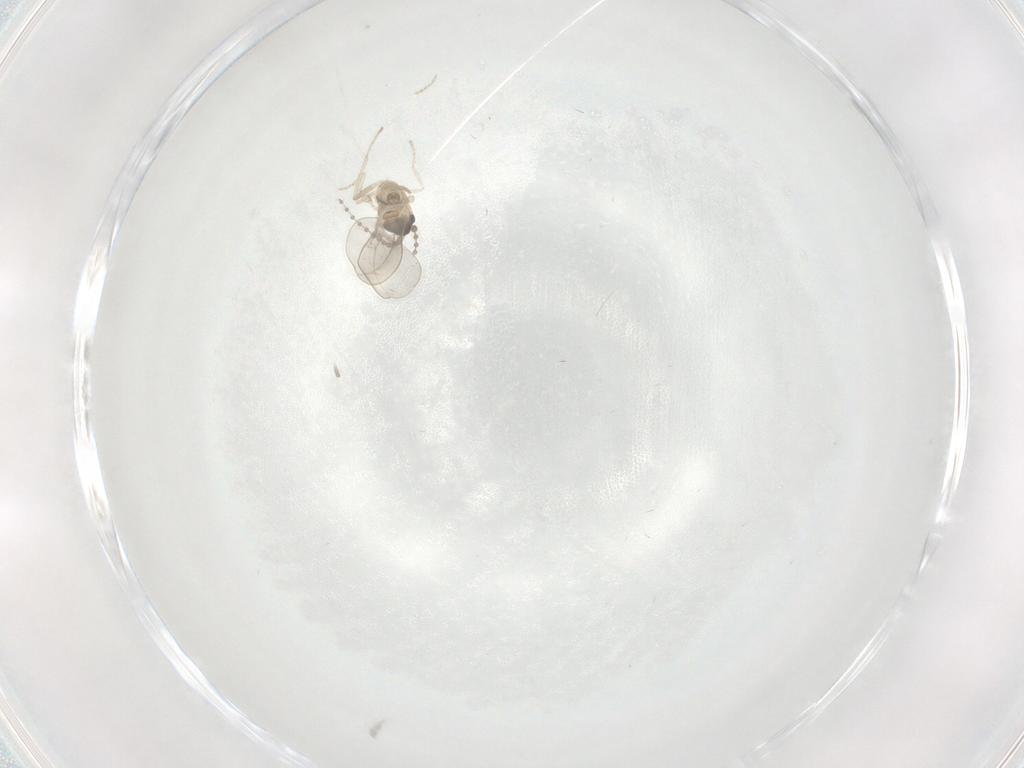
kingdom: Animalia
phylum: Arthropoda
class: Insecta
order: Diptera
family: Cecidomyiidae
